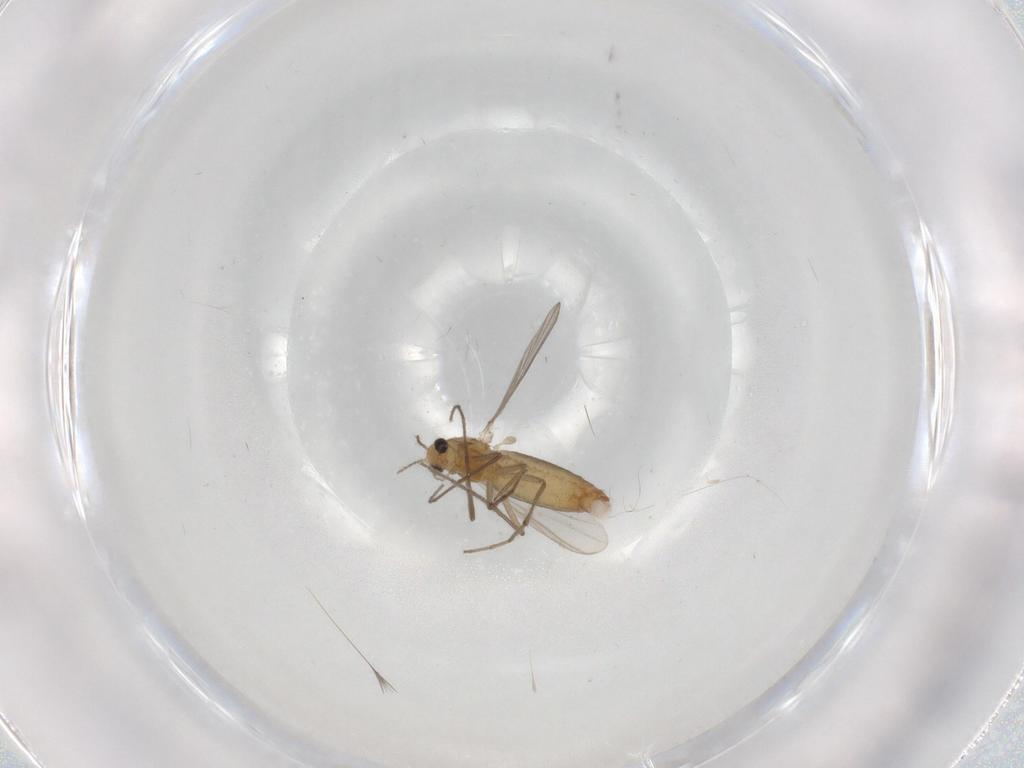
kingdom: Animalia
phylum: Arthropoda
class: Insecta
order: Diptera
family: Chironomidae
